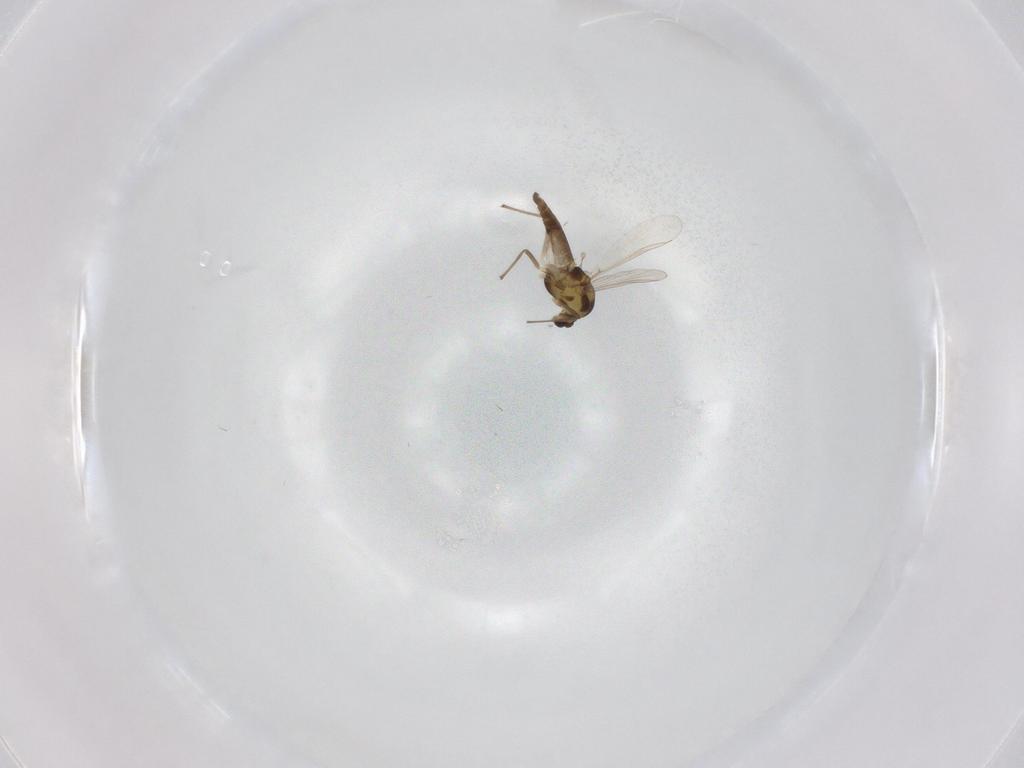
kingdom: Animalia
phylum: Arthropoda
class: Insecta
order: Diptera
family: Chironomidae
